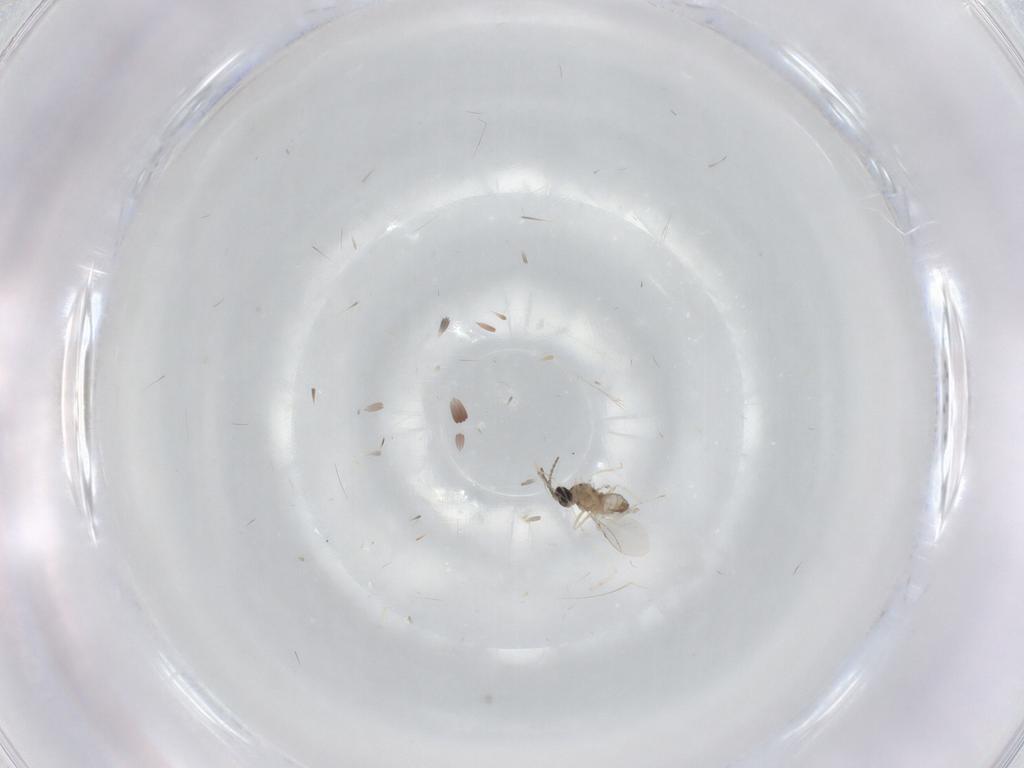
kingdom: Animalia
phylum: Arthropoda
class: Insecta
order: Diptera
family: Cecidomyiidae
